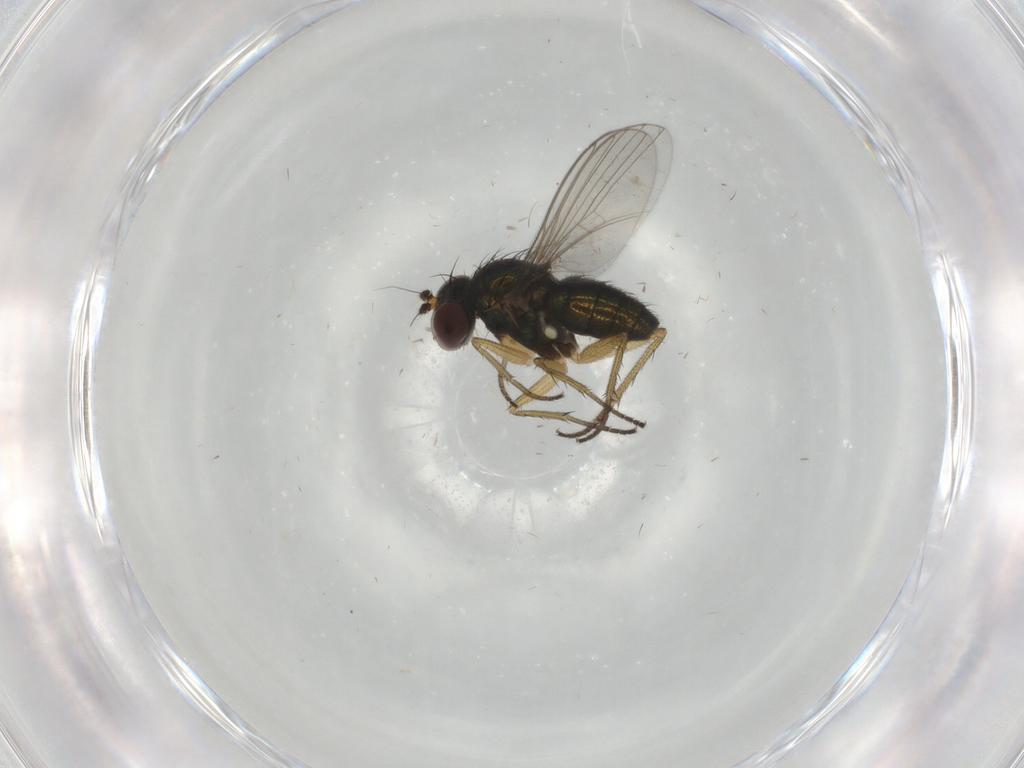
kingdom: Animalia
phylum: Arthropoda
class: Insecta
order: Diptera
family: Dolichopodidae
